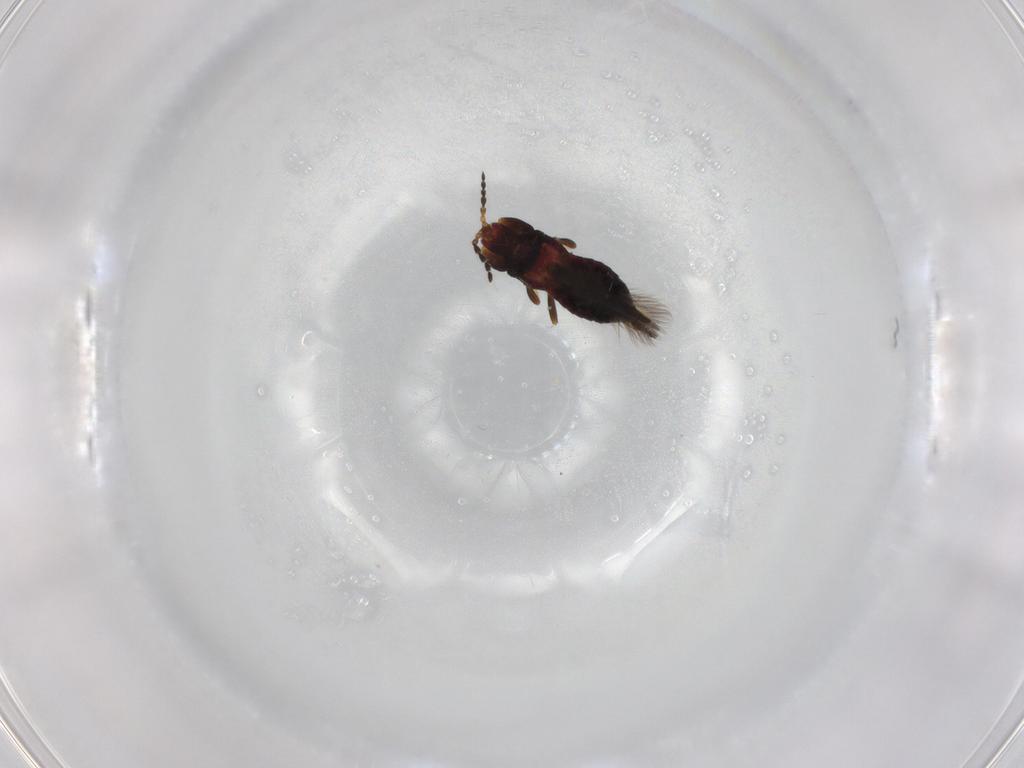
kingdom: Animalia
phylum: Arthropoda
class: Insecta
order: Thysanoptera
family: Phlaeothripidae
